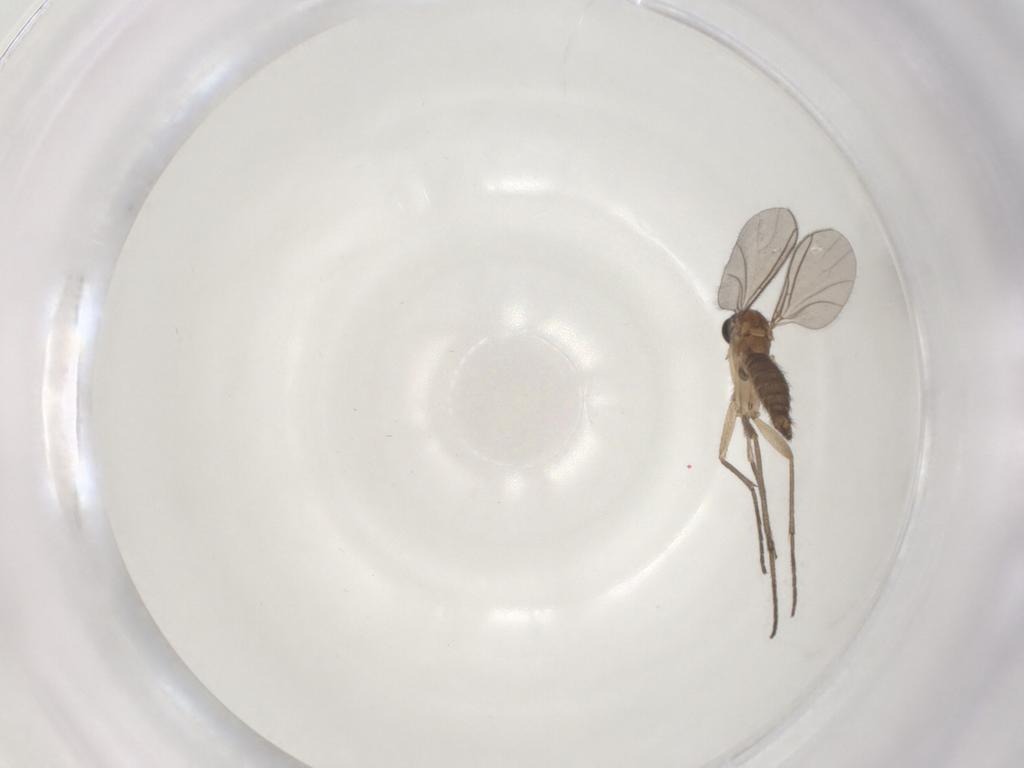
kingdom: Animalia
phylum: Arthropoda
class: Insecta
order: Diptera
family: Sciaridae
